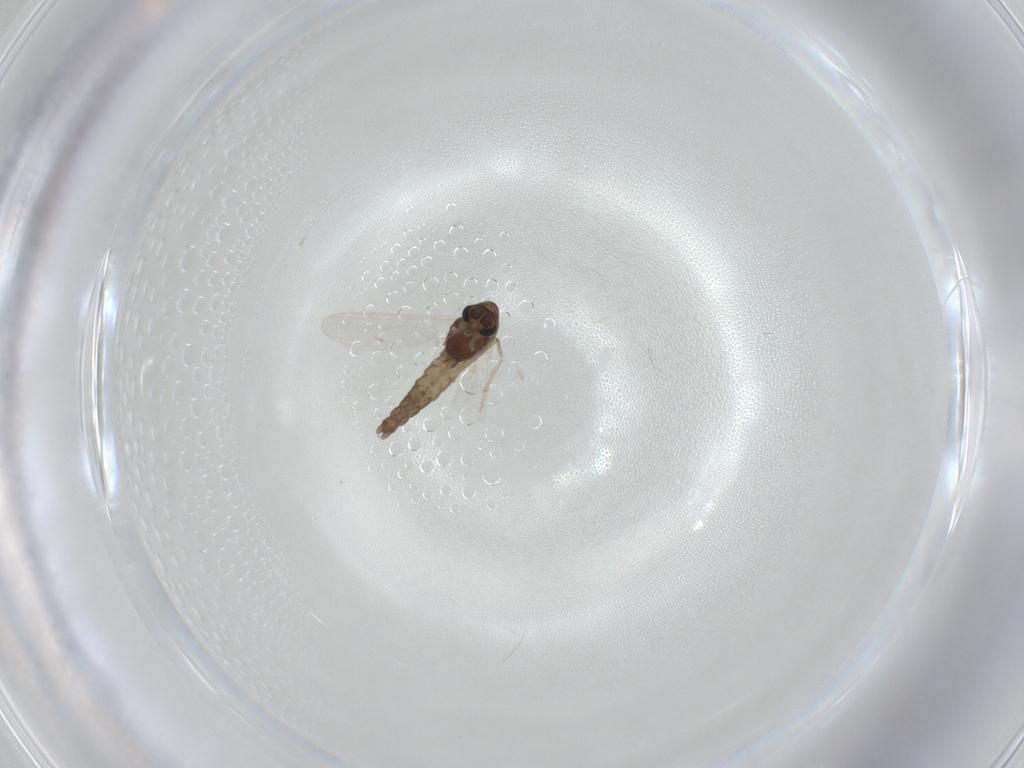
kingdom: Animalia
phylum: Arthropoda
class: Insecta
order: Diptera
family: Chironomidae
